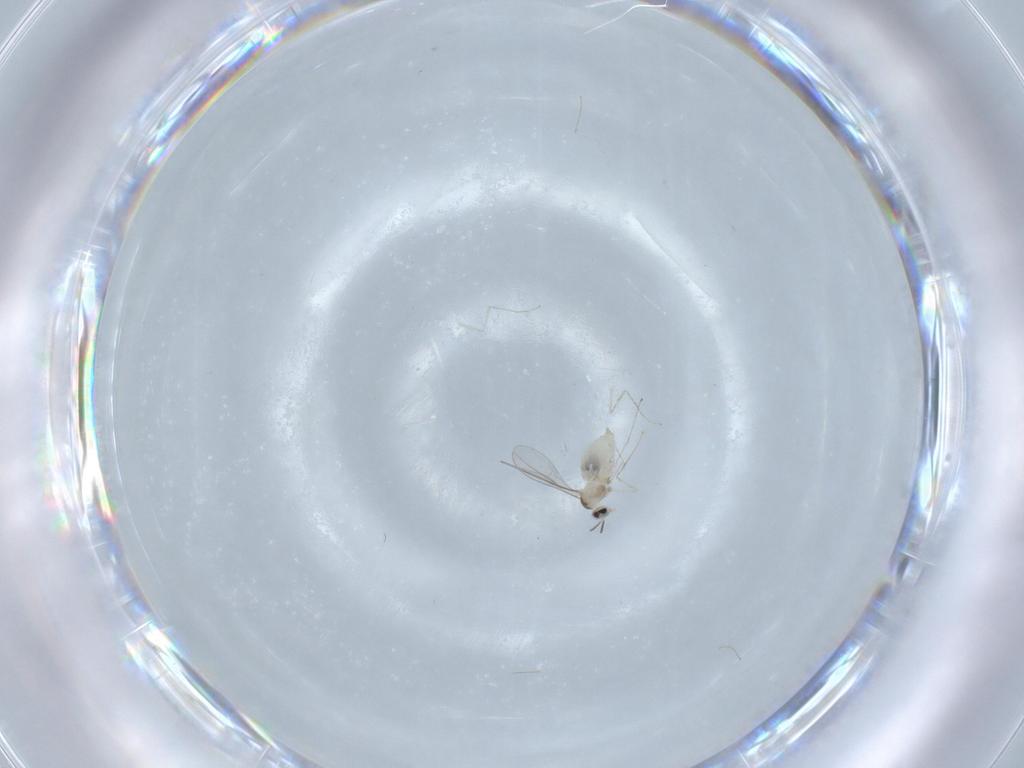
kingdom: Animalia
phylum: Arthropoda
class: Insecta
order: Diptera
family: Cecidomyiidae
